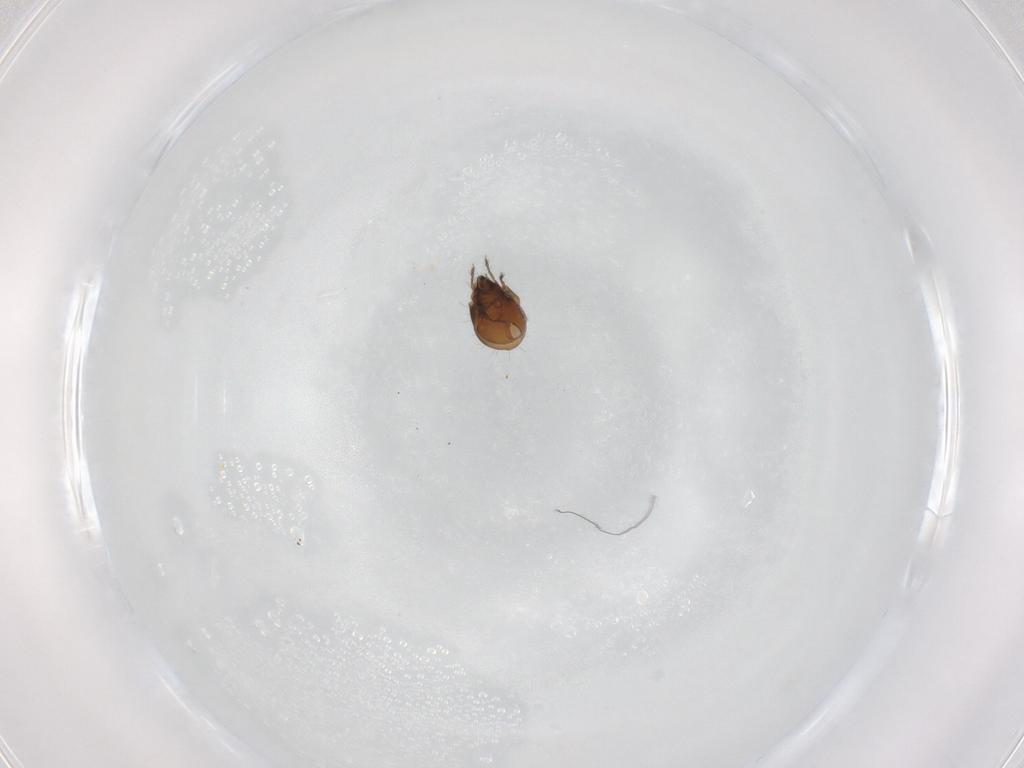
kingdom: Animalia
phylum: Arthropoda
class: Arachnida
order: Sarcoptiformes
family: Humerobatidae
